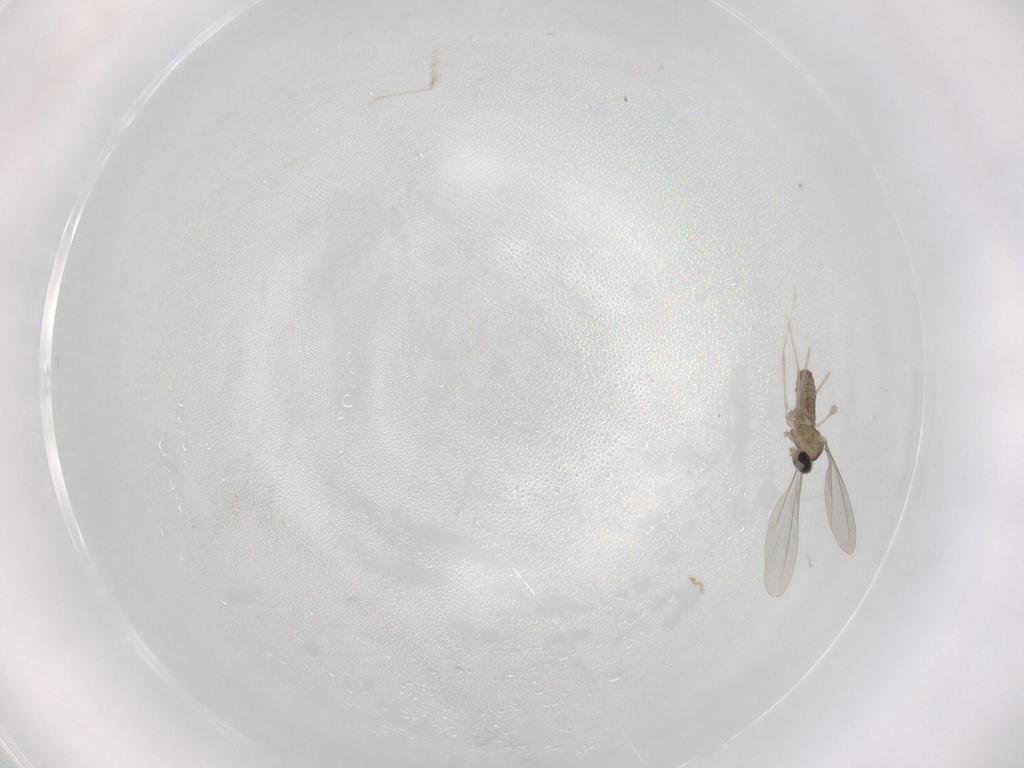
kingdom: Animalia
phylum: Arthropoda
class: Insecta
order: Diptera
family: Cecidomyiidae
